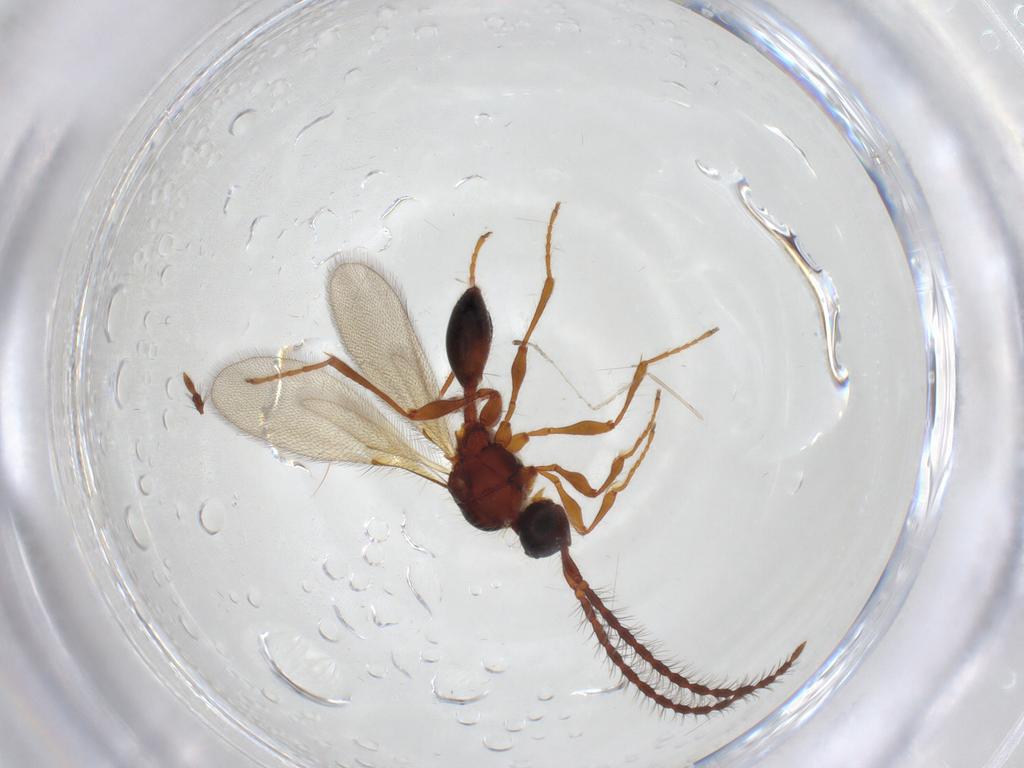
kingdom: Animalia
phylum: Arthropoda
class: Insecta
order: Hymenoptera
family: Diapriidae
